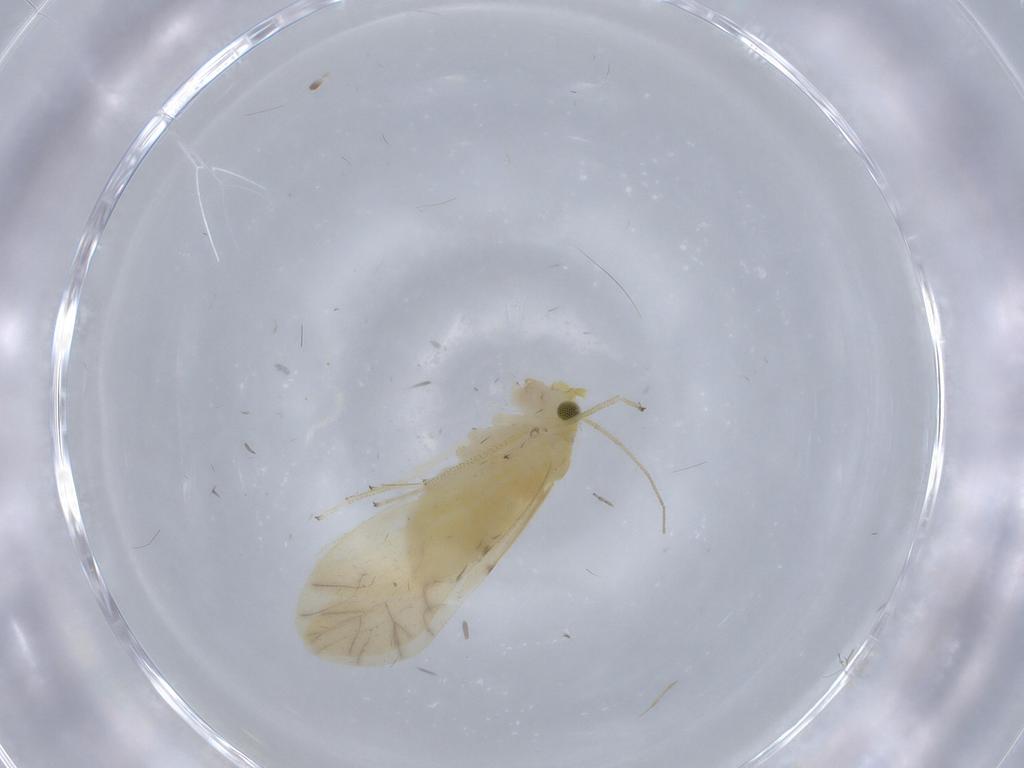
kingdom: Animalia
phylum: Arthropoda
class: Insecta
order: Psocodea
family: Caeciliusidae
